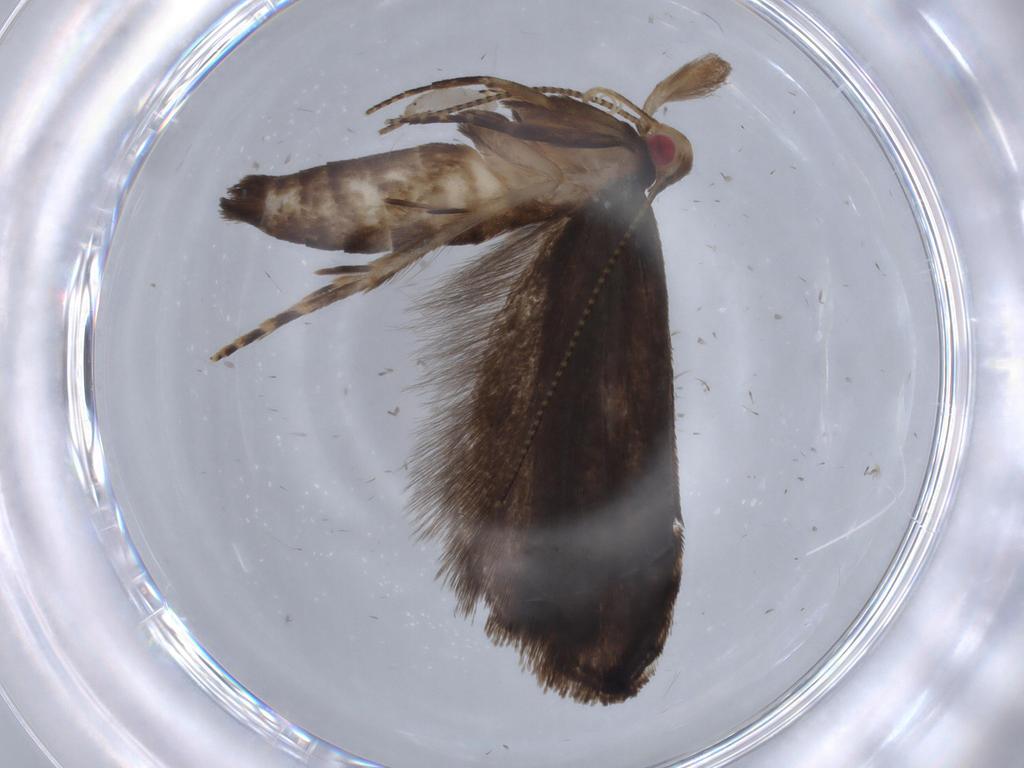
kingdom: Animalia
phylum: Arthropoda
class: Insecta
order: Lepidoptera
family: Gelechiidae
